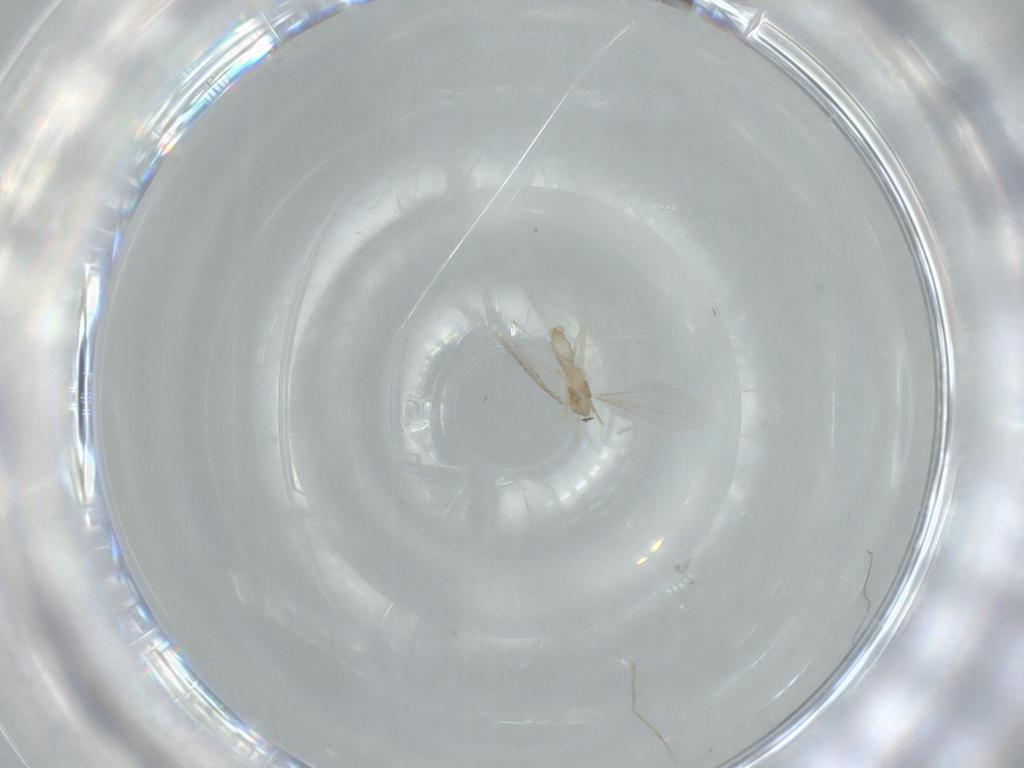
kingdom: Animalia
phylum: Arthropoda
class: Insecta
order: Diptera
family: Cecidomyiidae
